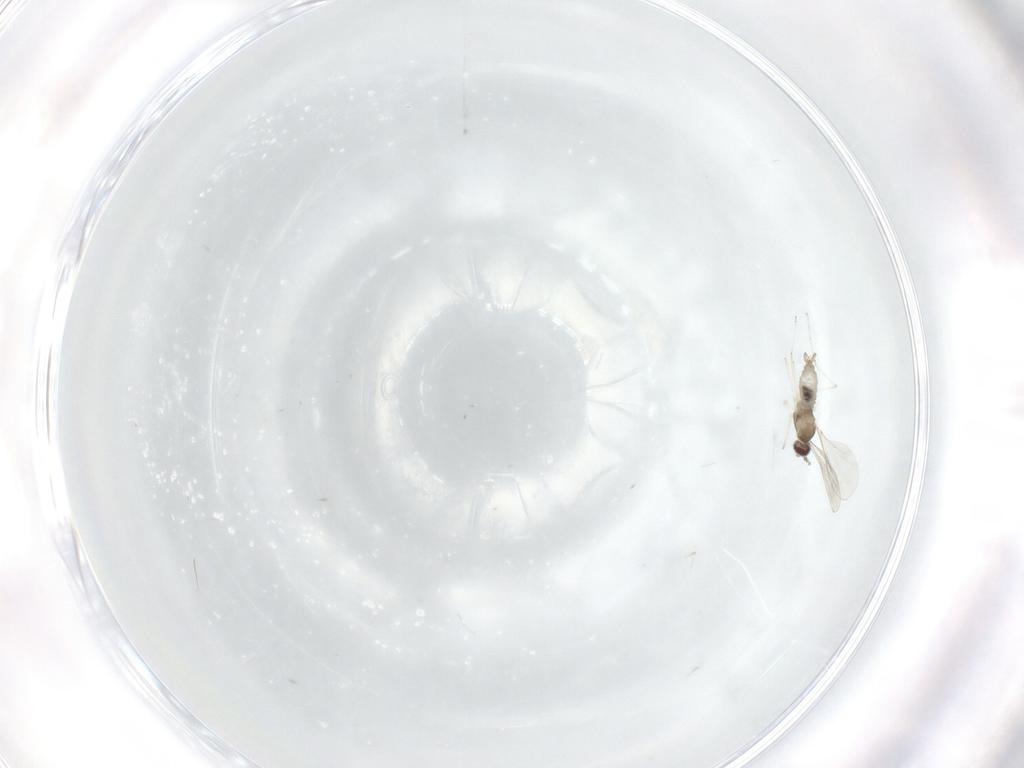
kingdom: Animalia
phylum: Arthropoda
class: Insecta
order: Diptera
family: Cecidomyiidae
